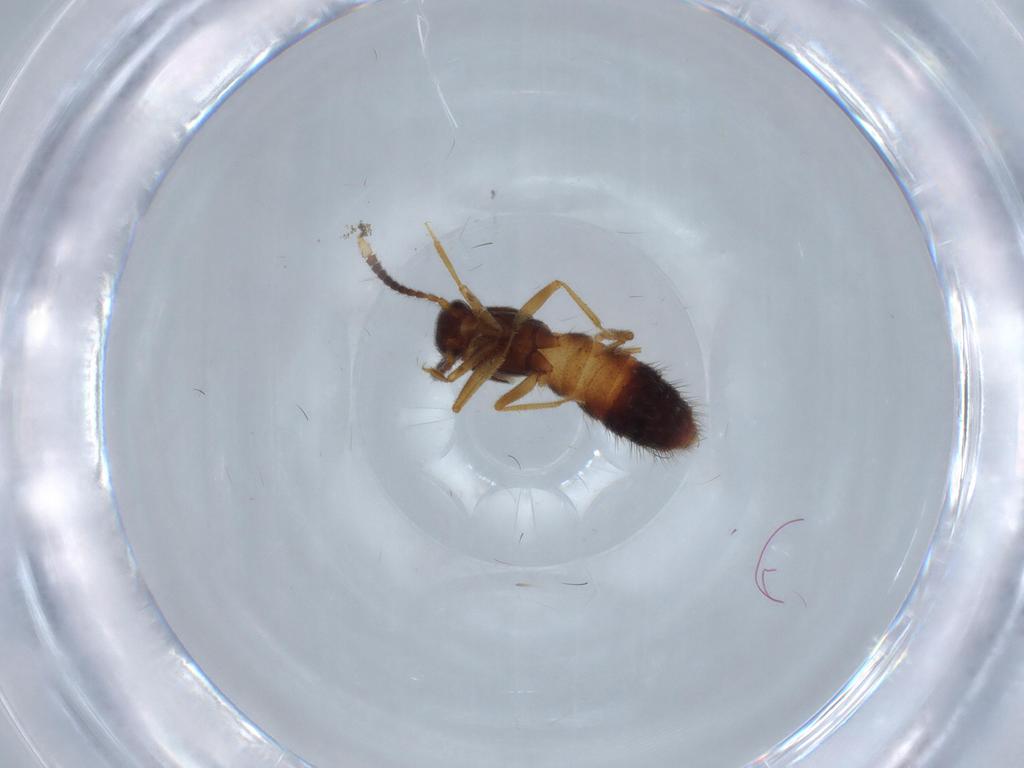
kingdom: Animalia
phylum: Arthropoda
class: Insecta
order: Coleoptera
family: Staphylinidae
